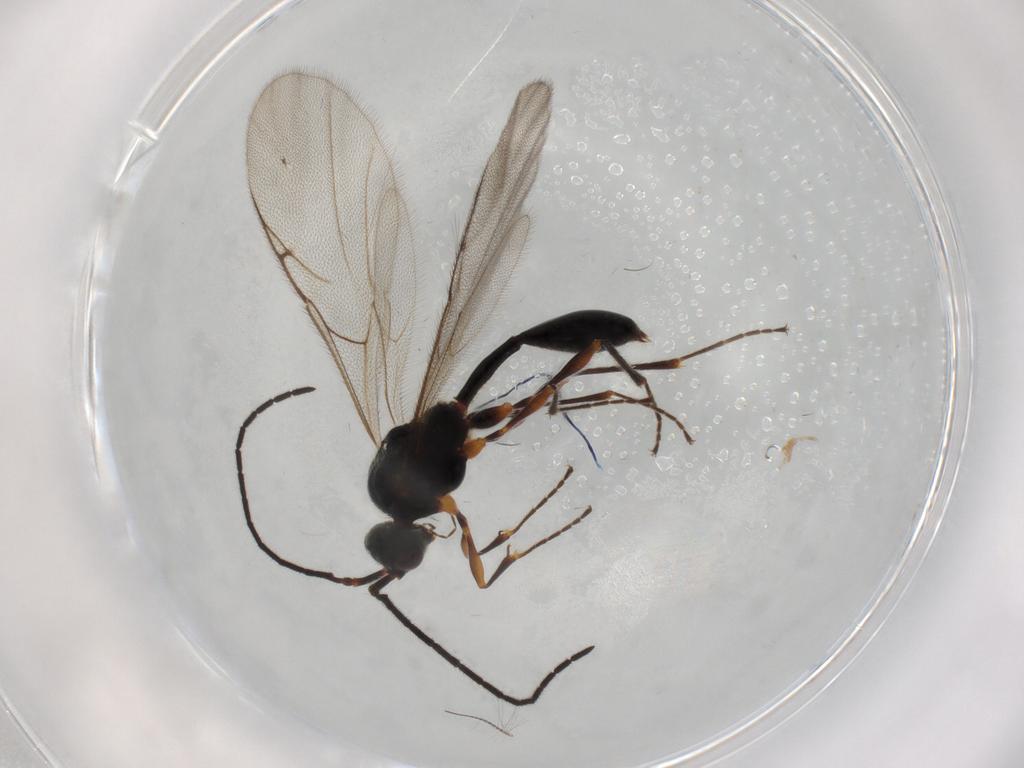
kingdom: Animalia
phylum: Arthropoda
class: Insecta
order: Hymenoptera
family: Diapriidae
